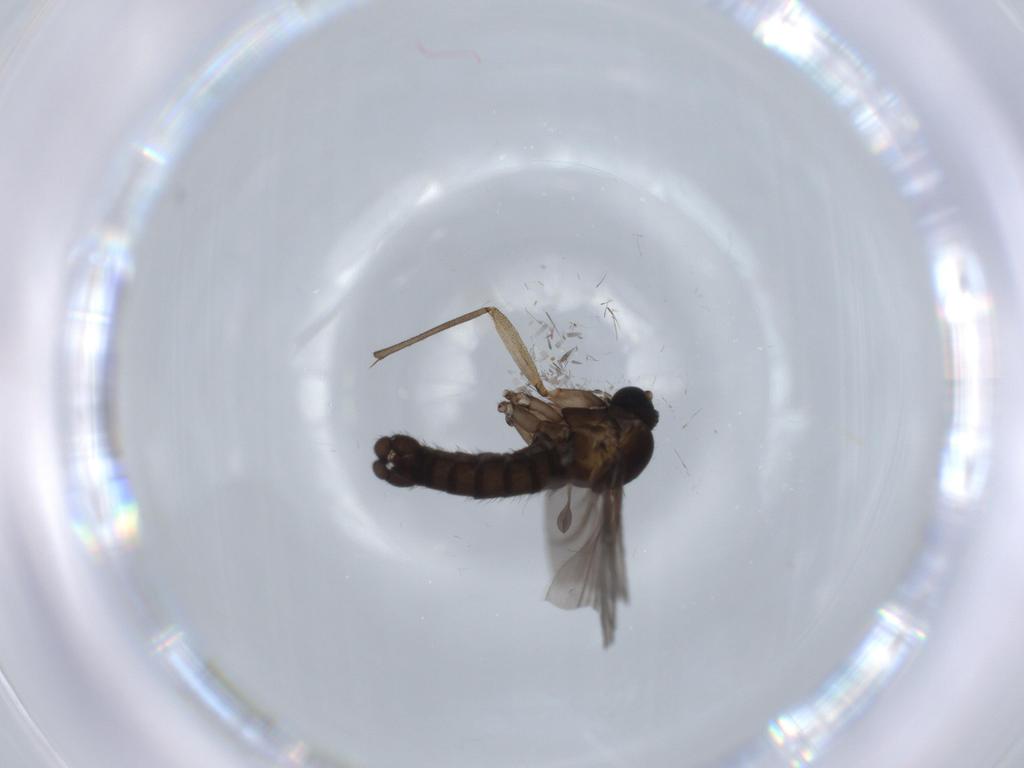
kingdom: Animalia
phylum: Arthropoda
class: Insecta
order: Diptera
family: Sciaridae
